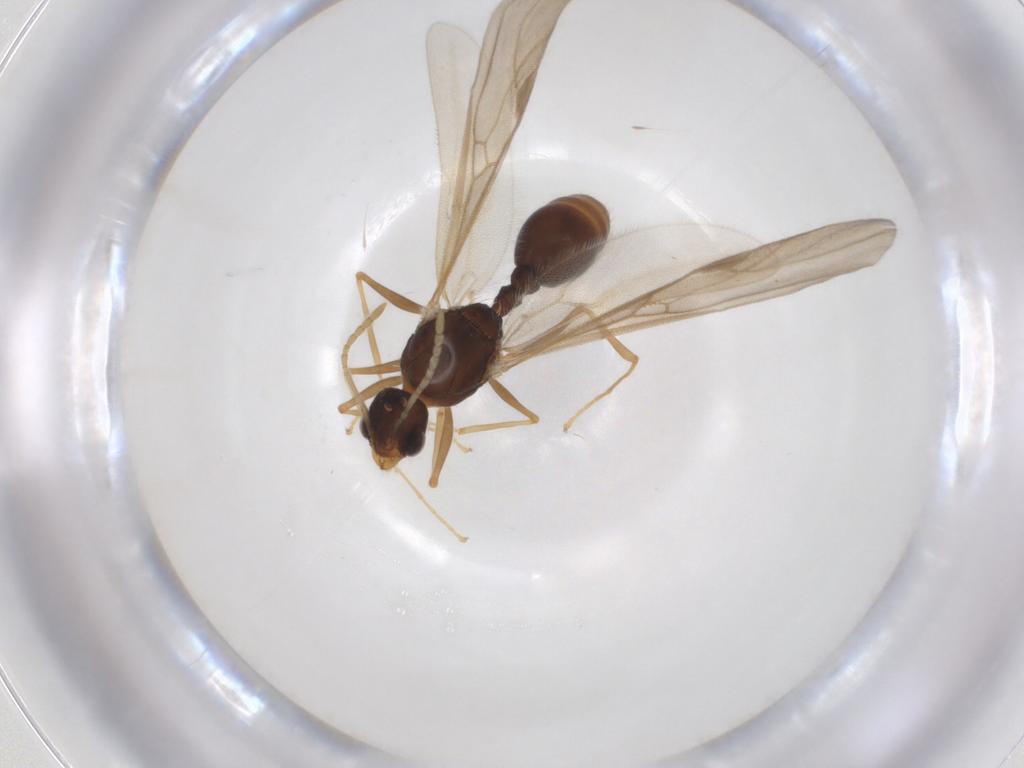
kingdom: Animalia
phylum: Arthropoda
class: Insecta
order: Hymenoptera
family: Formicidae
